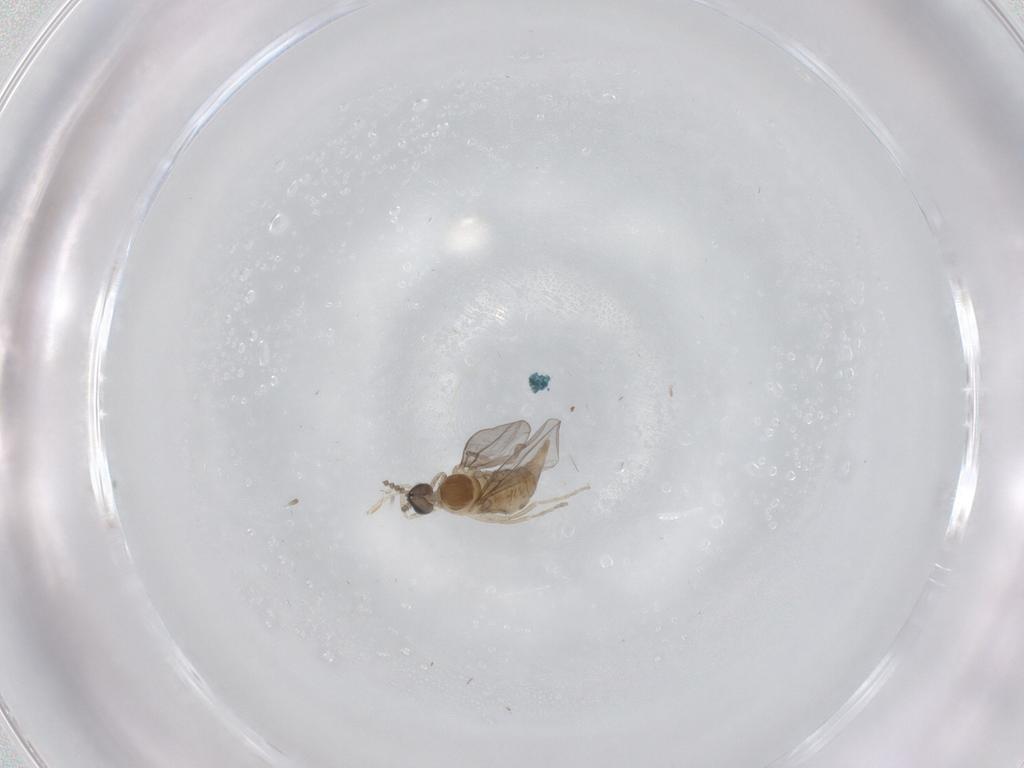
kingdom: Animalia
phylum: Arthropoda
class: Insecta
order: Diptera
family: Cecidomyiidae
